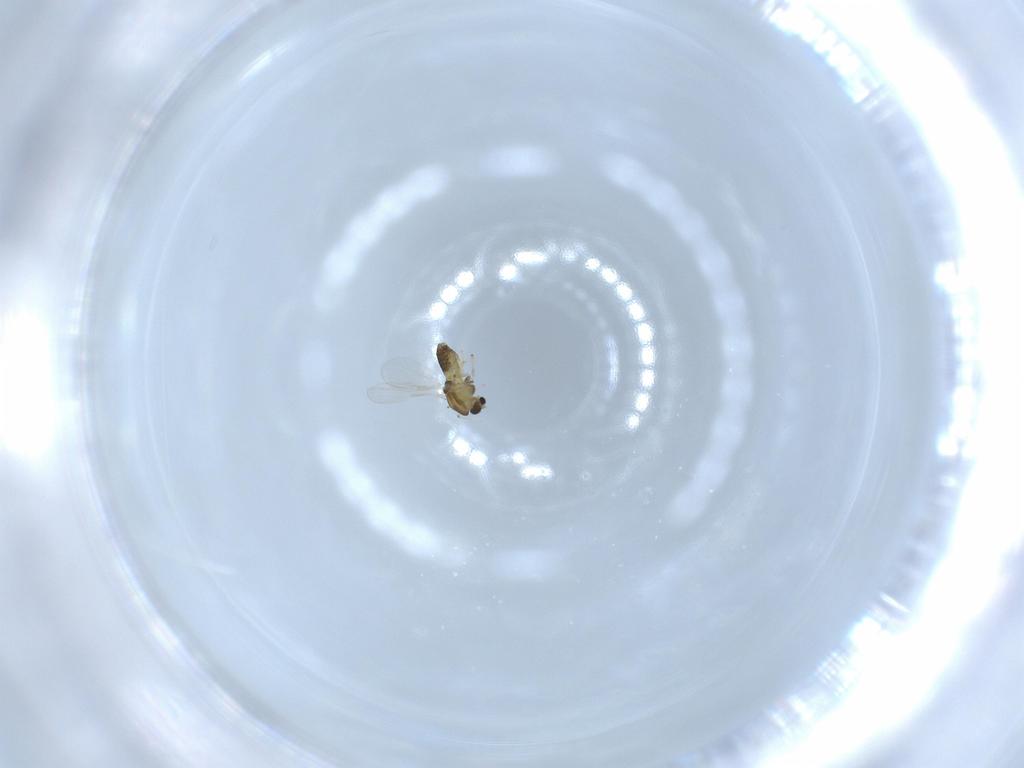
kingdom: Animalia
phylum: Arthropoda
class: Insecta
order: Diptera
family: Chironomidae
